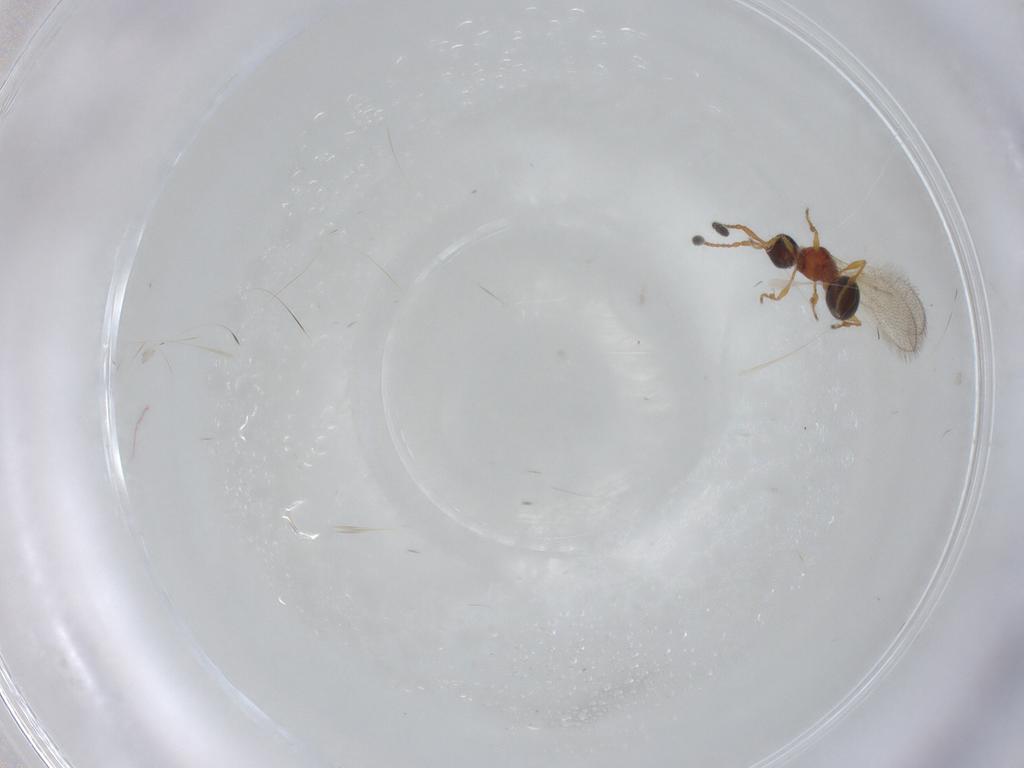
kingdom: Animalia
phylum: Arthropoda
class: Insecta
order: Hymenoptera
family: Diapriidae
